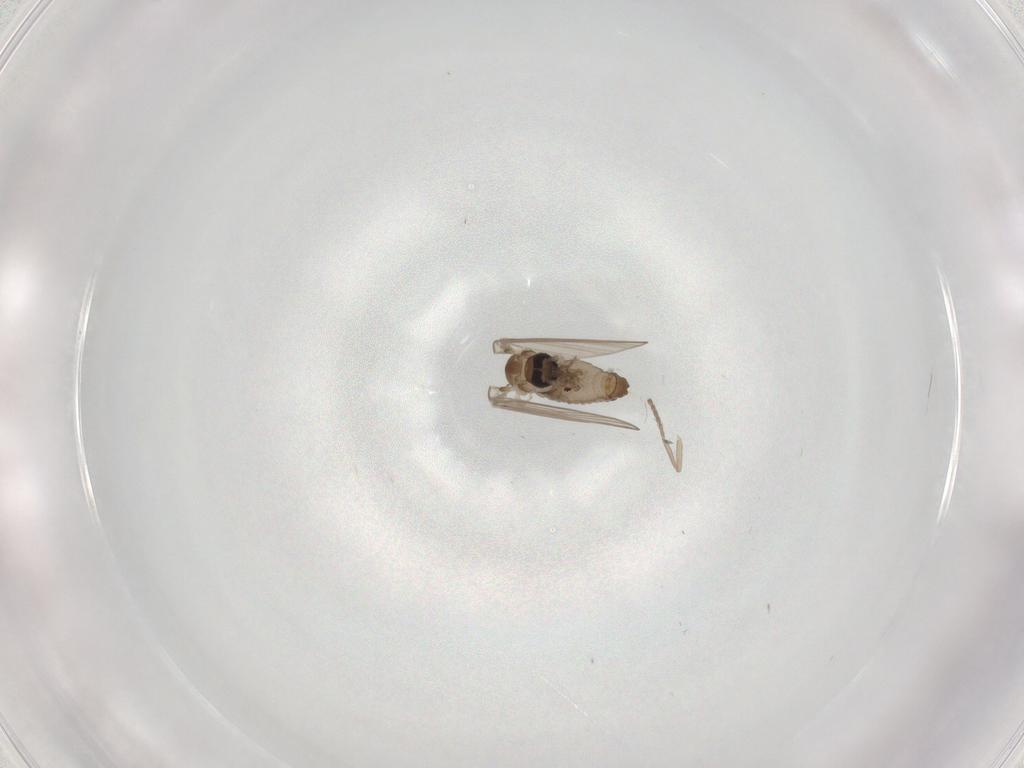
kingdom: Animalia
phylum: Arthropoda
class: Insecta
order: Diptera
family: Psychodidae
